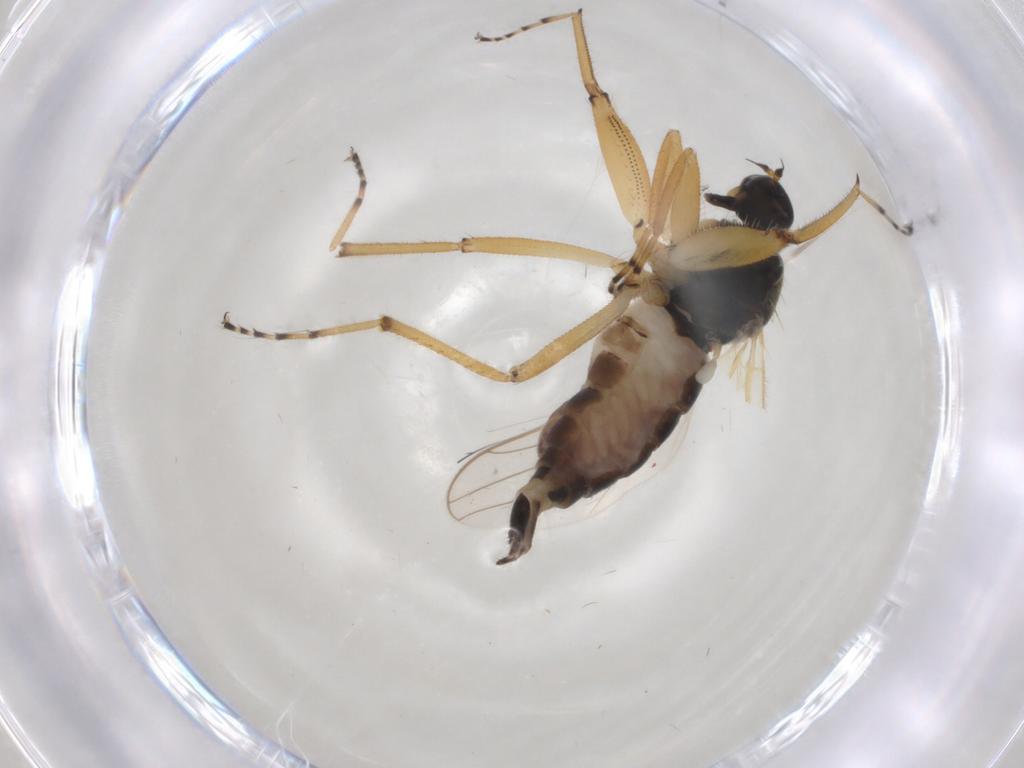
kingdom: Animalia
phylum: Arthropoda
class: Insecta
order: Diptera
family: Hybotidae
